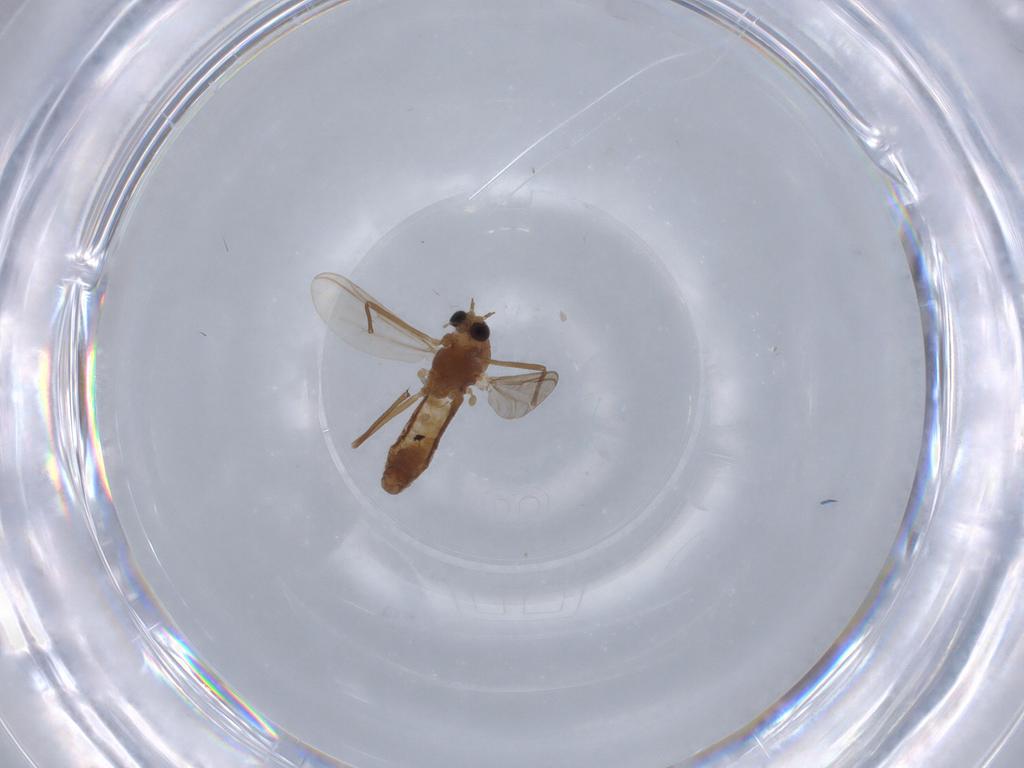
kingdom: Animalia
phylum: Arthropoda
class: Insecta
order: Diptera
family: Chironomidae
